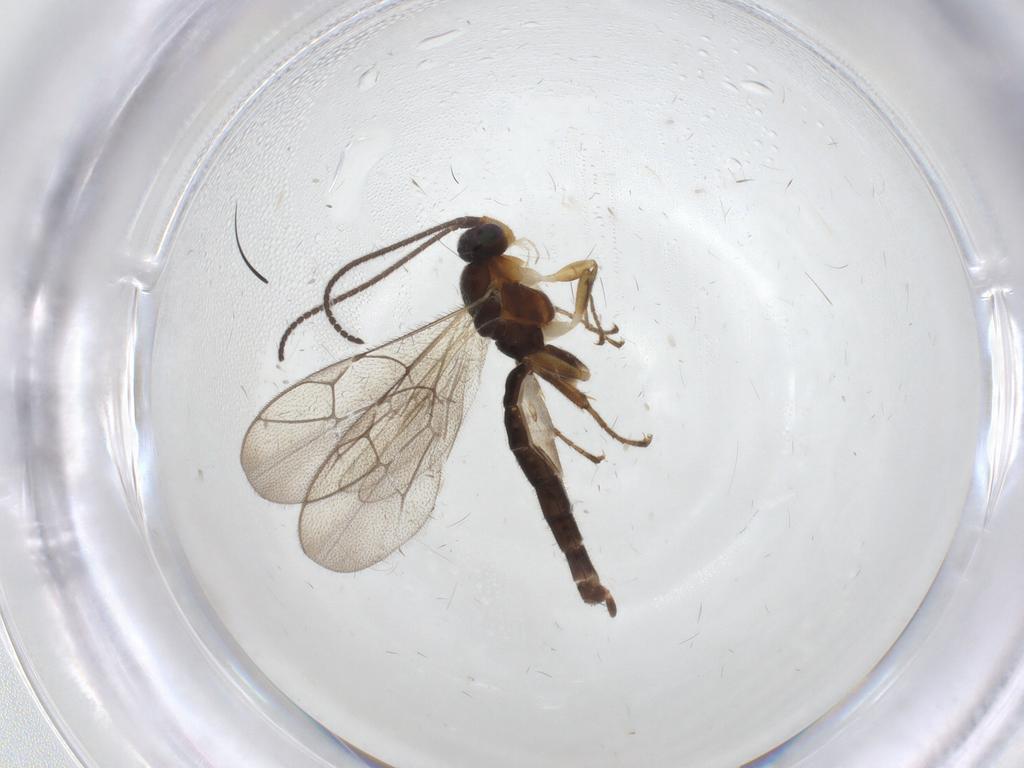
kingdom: Animalia
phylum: Arthropoda
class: Insecta
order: Hymenoptera
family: Ichneumonidae
